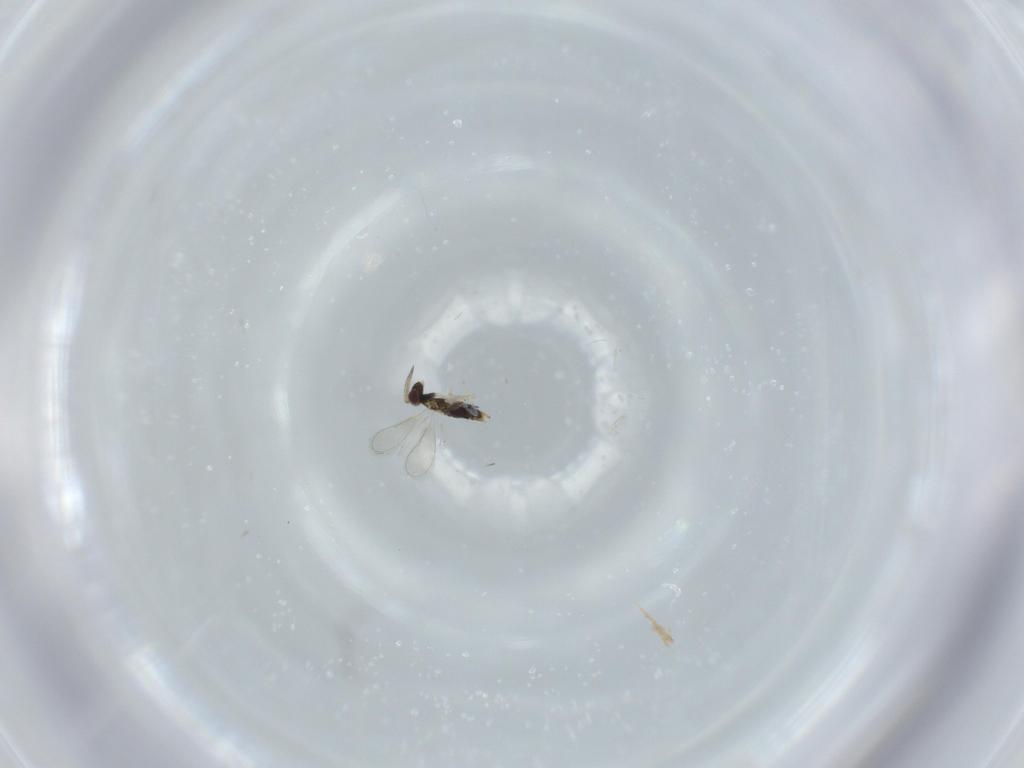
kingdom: Animalia
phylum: Arthropoda
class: Insecta
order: Hymenoptera
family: Aphelinidae
